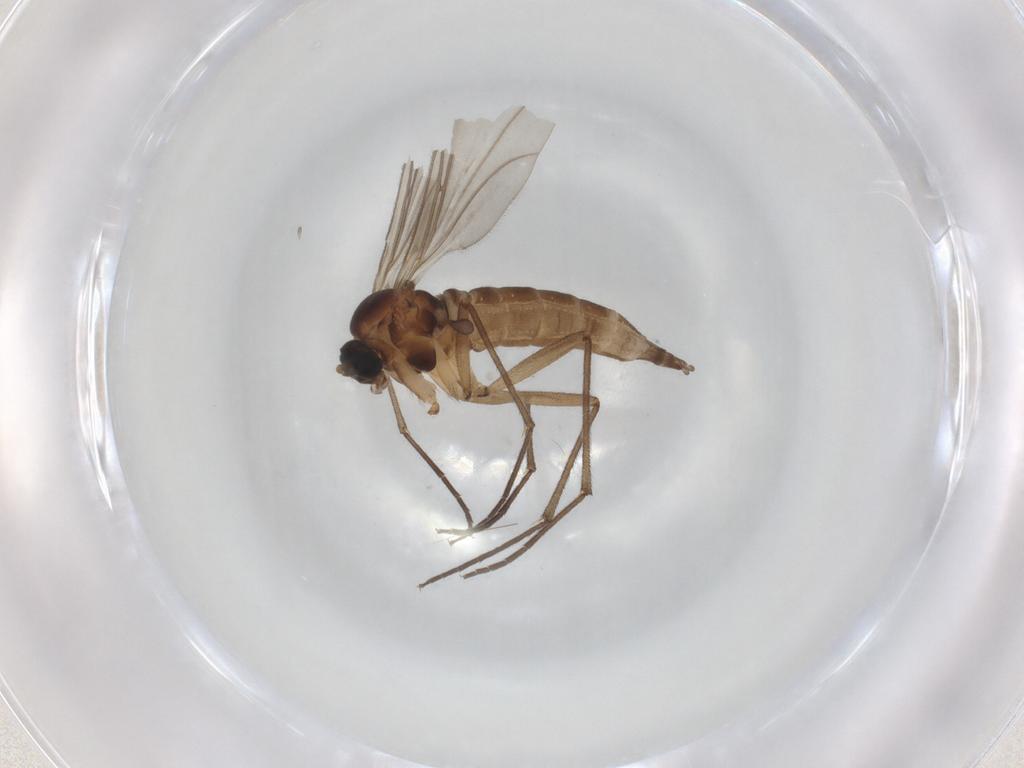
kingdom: Animalia
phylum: Arthropoda
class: Insecta
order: Diptera
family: Sciaridae
